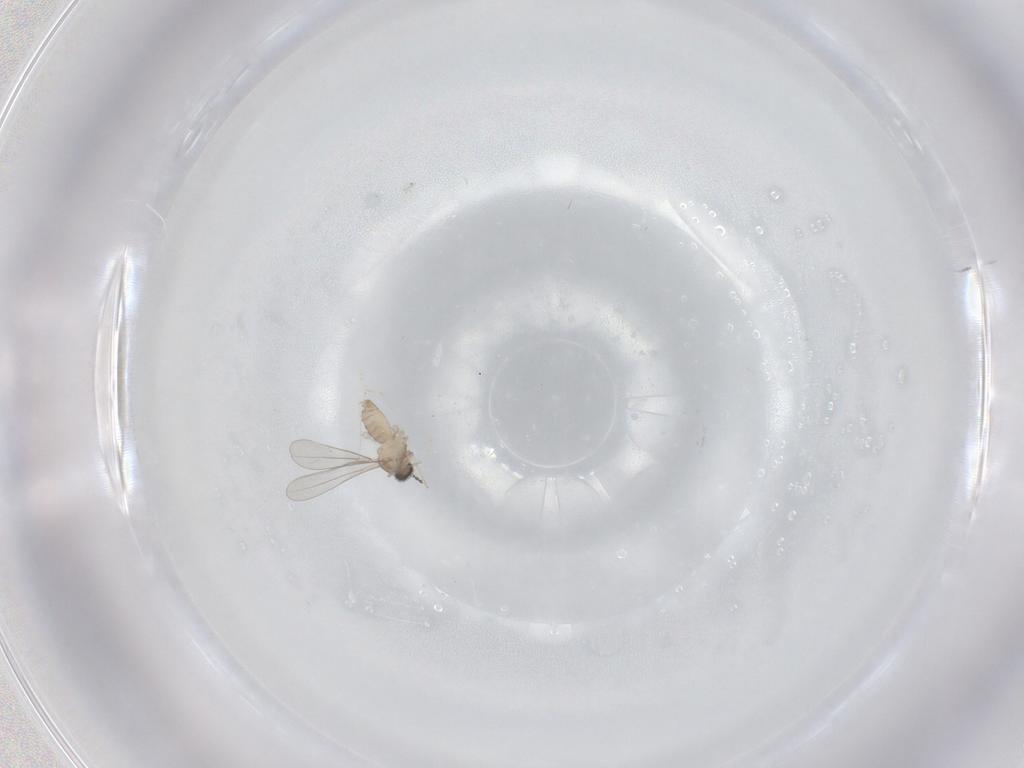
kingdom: Animalia
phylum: Arthropoda
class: Insecta
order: Diptera
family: Cecidomyiidae
